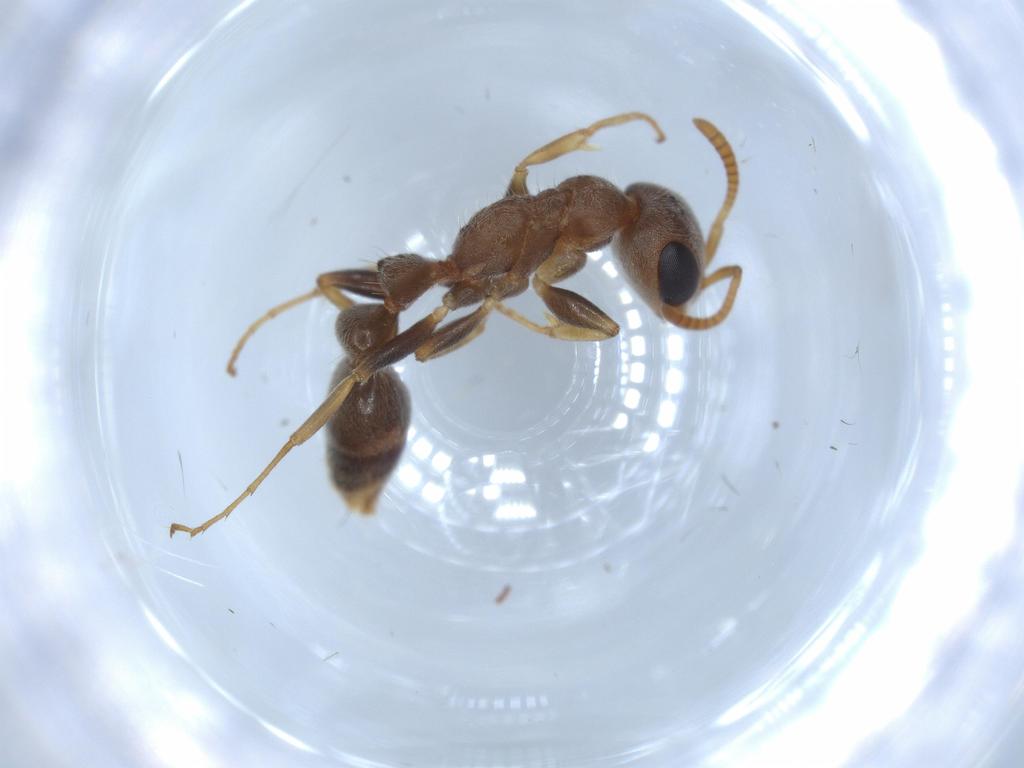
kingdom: Animalia
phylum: Arthropoda
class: Insecta
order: Hymenoptera
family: Formicidae
